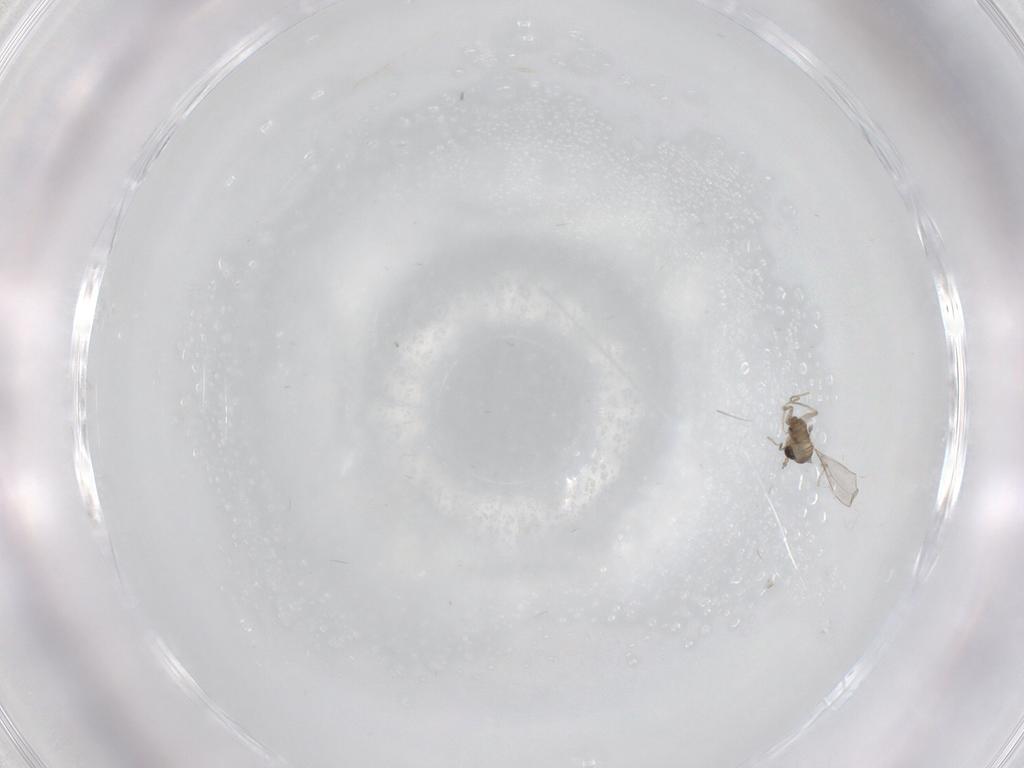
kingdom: Animalia
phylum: Arthropoda
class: Insecta
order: Diptera
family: Cecidomyiidae
